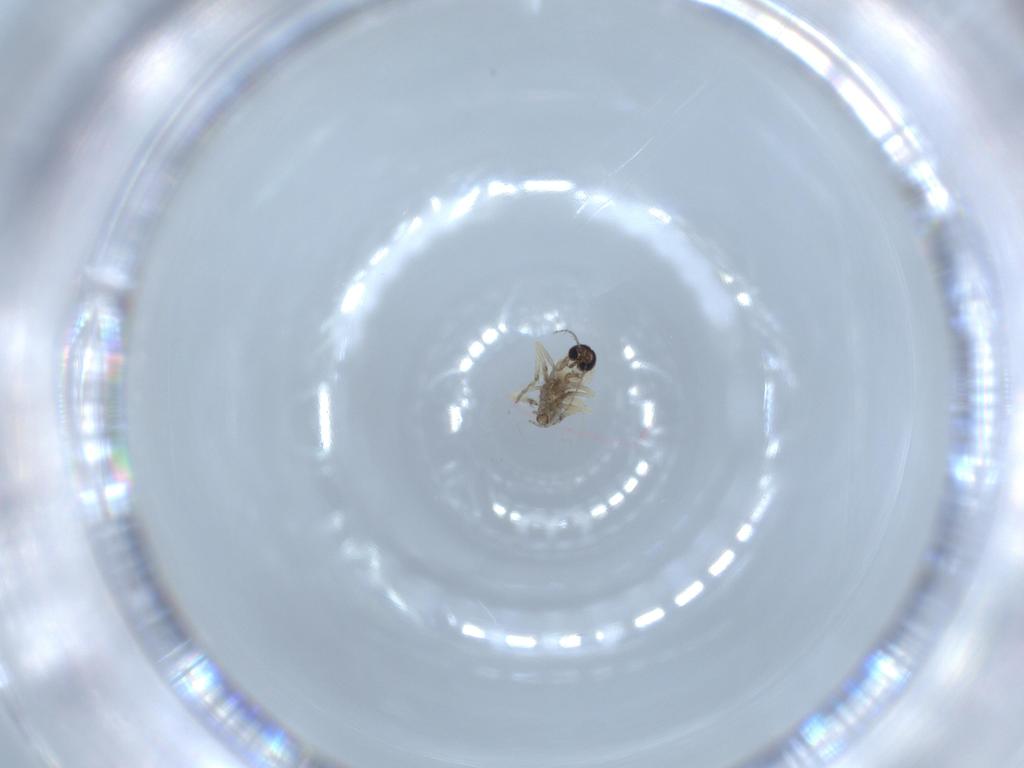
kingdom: Animalia
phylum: Arthropoda
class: Insecta
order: Diptera
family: Ceratopogonidae
